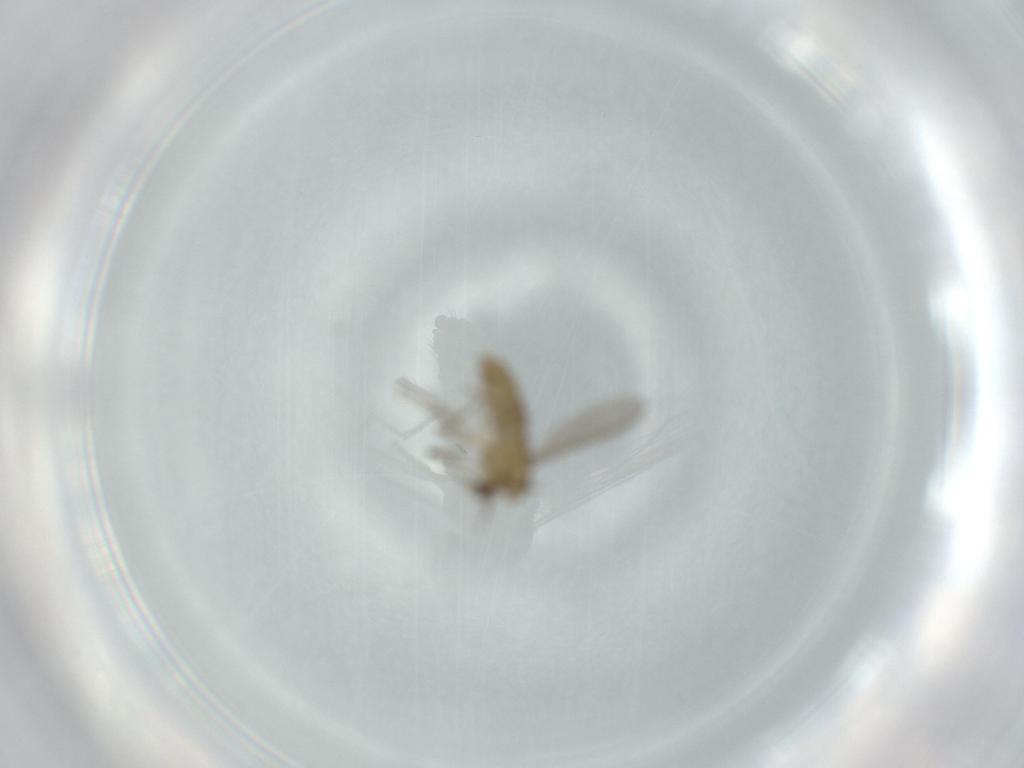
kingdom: Animalia
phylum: Arthropoda
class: Insecta
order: Diptera
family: Chironomidae
